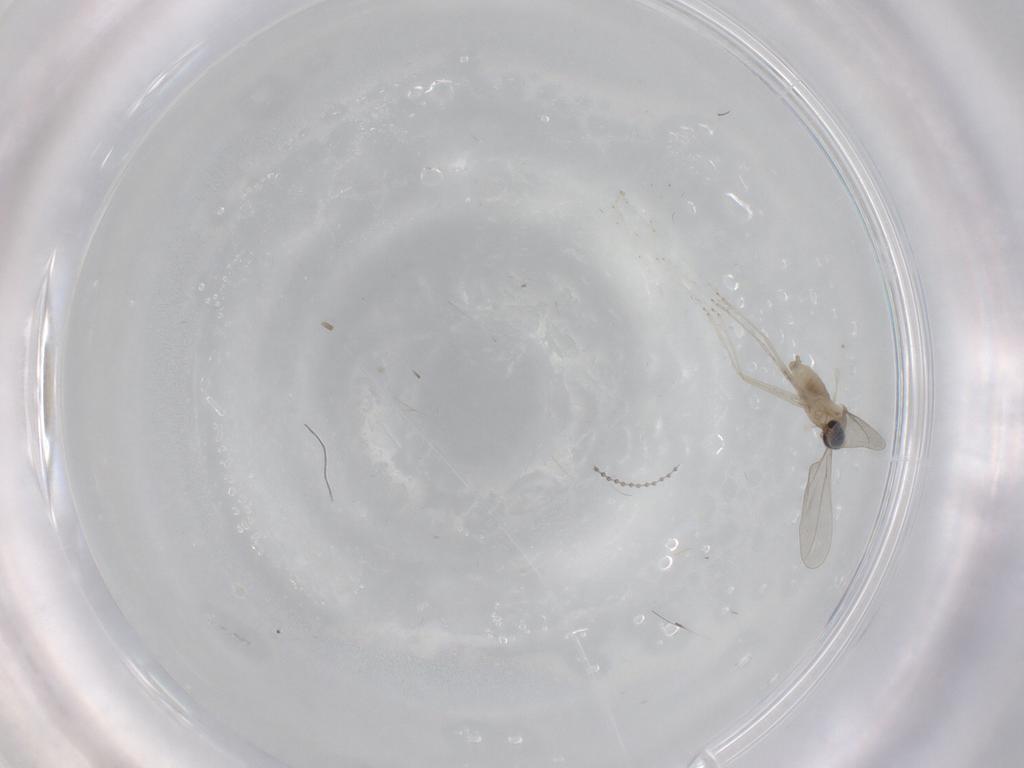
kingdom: Animalia
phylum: Arthropoda
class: Insecta
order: Diptera
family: Cecidomyiidae
